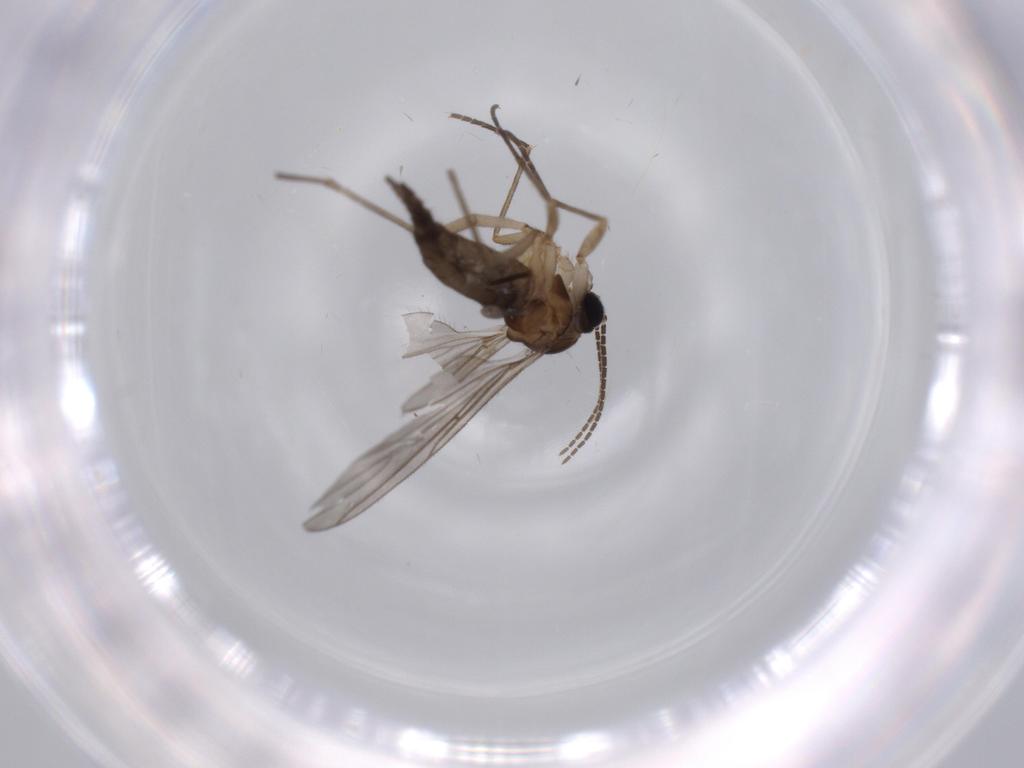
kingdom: Animalia
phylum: Arthropoda
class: Insecta
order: Diptera
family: Sciaridae
